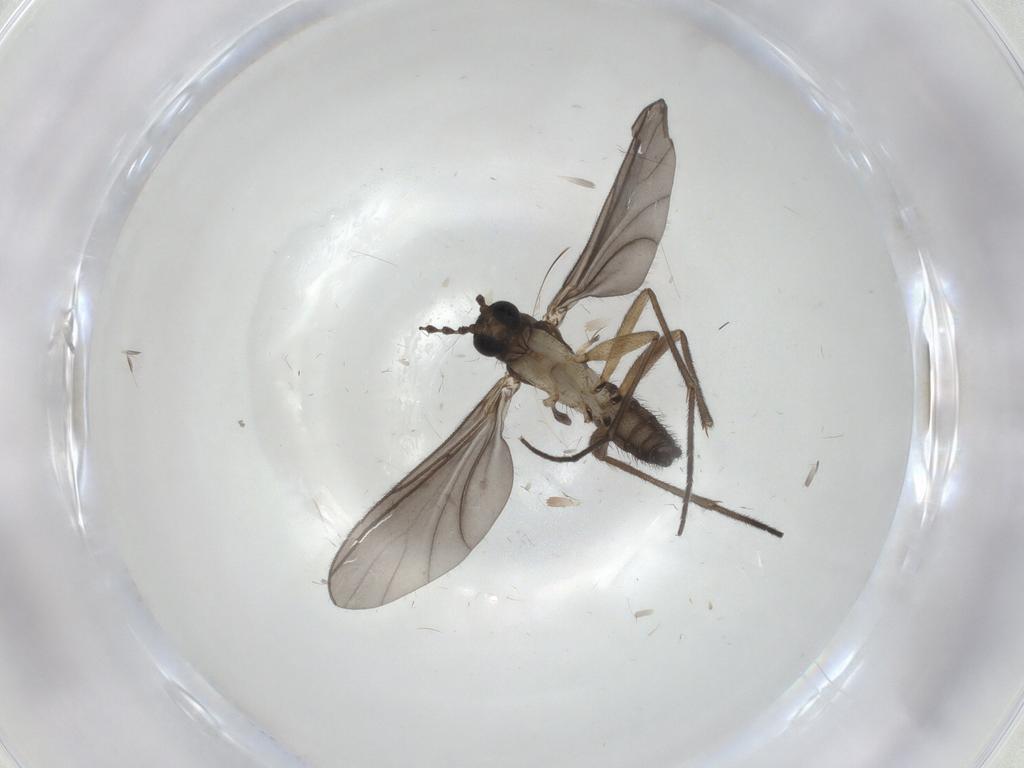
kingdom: Animalia
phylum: Arthropoda
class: Insecta
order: Diptera
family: Sciaridae
